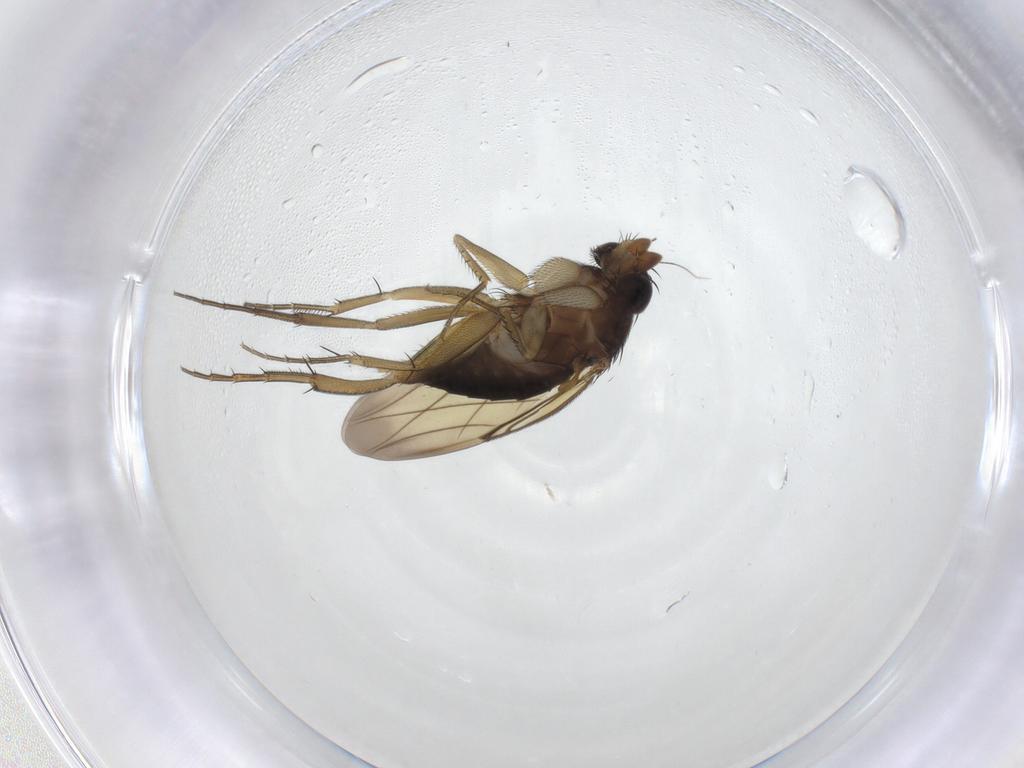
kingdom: Animalia
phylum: Arthropoda
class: Insecta
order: Diptera
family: Phoridae
